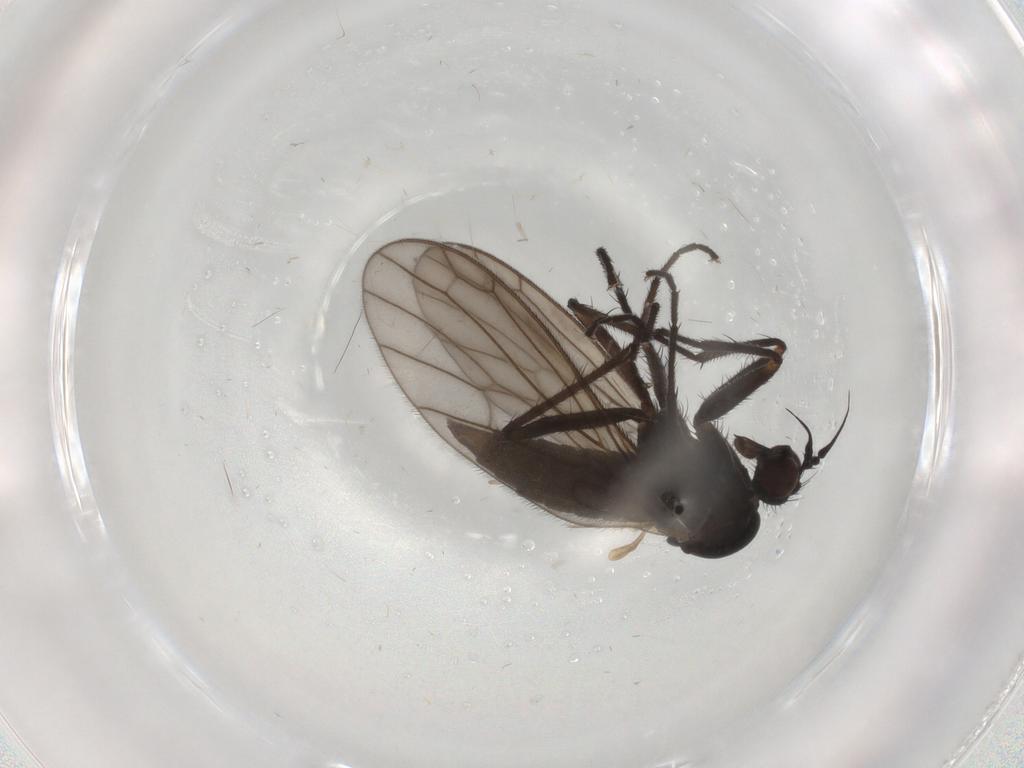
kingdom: Animalia
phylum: Arthropoda
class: Insecta
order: Diptera
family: Empididae
